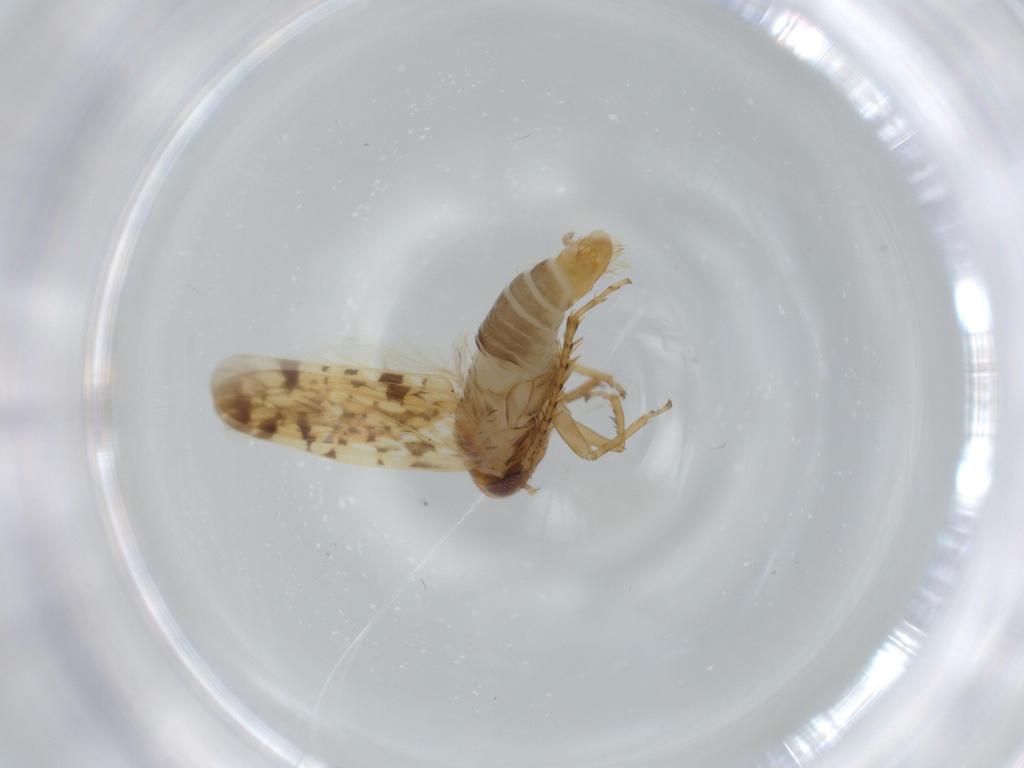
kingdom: Animalia
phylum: Arthropoda
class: Insecta
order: Hemiptera
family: Cicadellidae
